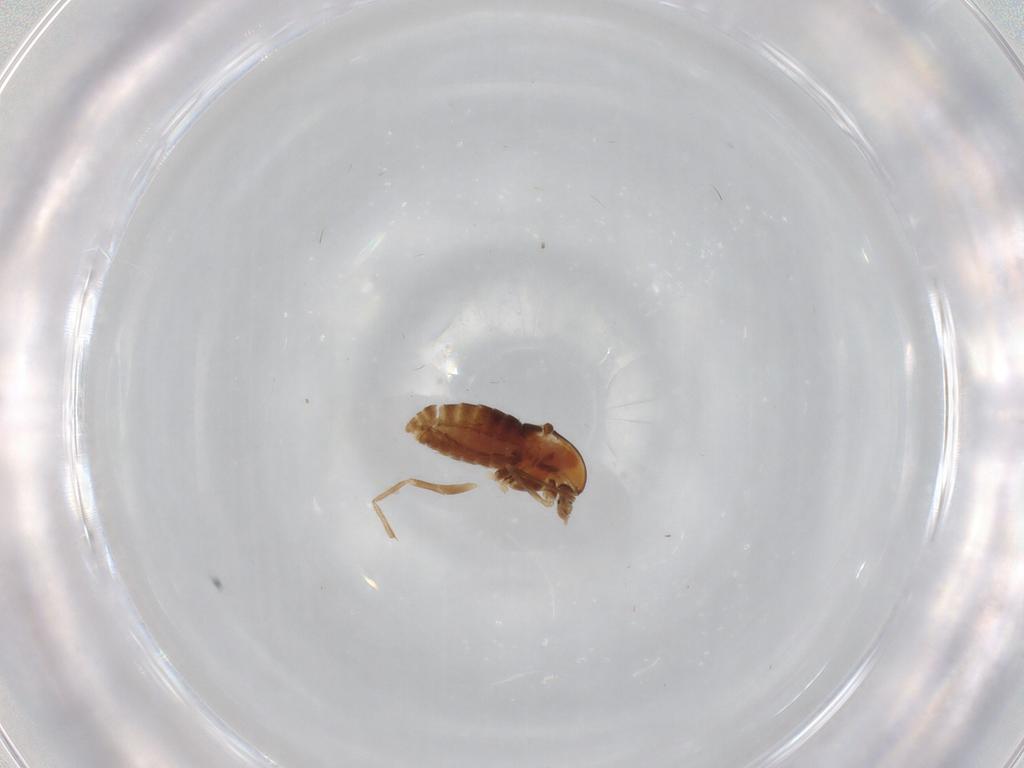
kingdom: Animalia
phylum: Arthropoda
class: Insecta
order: Diptera
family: Chironomidae
